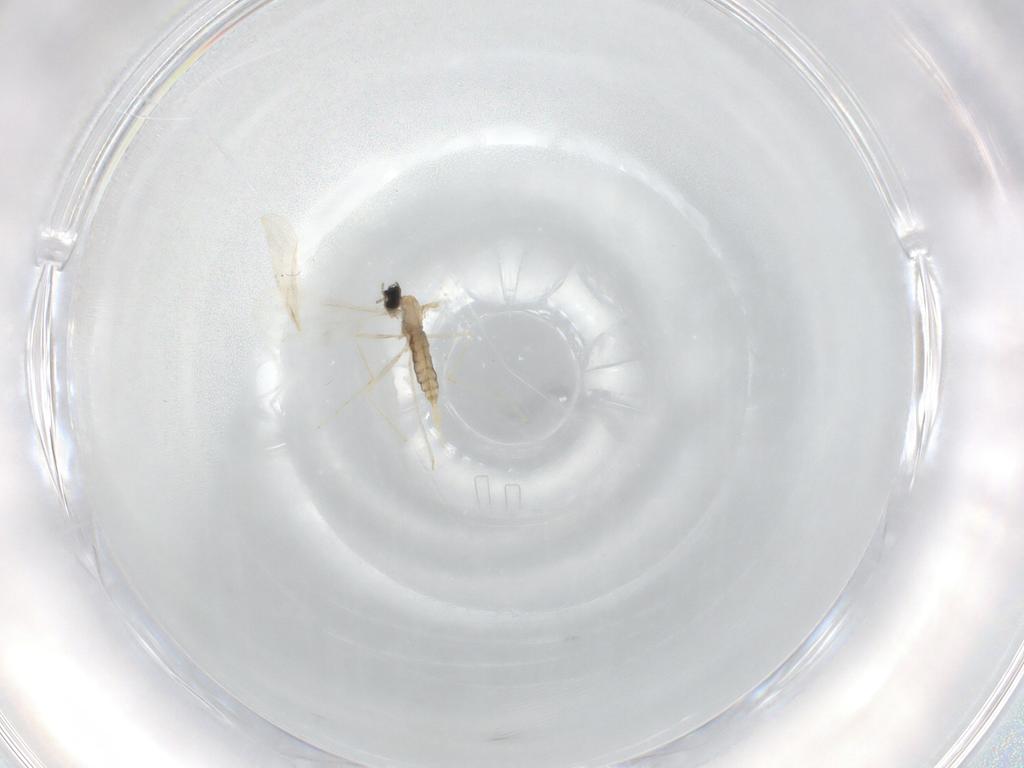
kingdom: Animalia
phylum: Arthropoda
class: Insecta
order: Diptera
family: Cecidomyiidae
